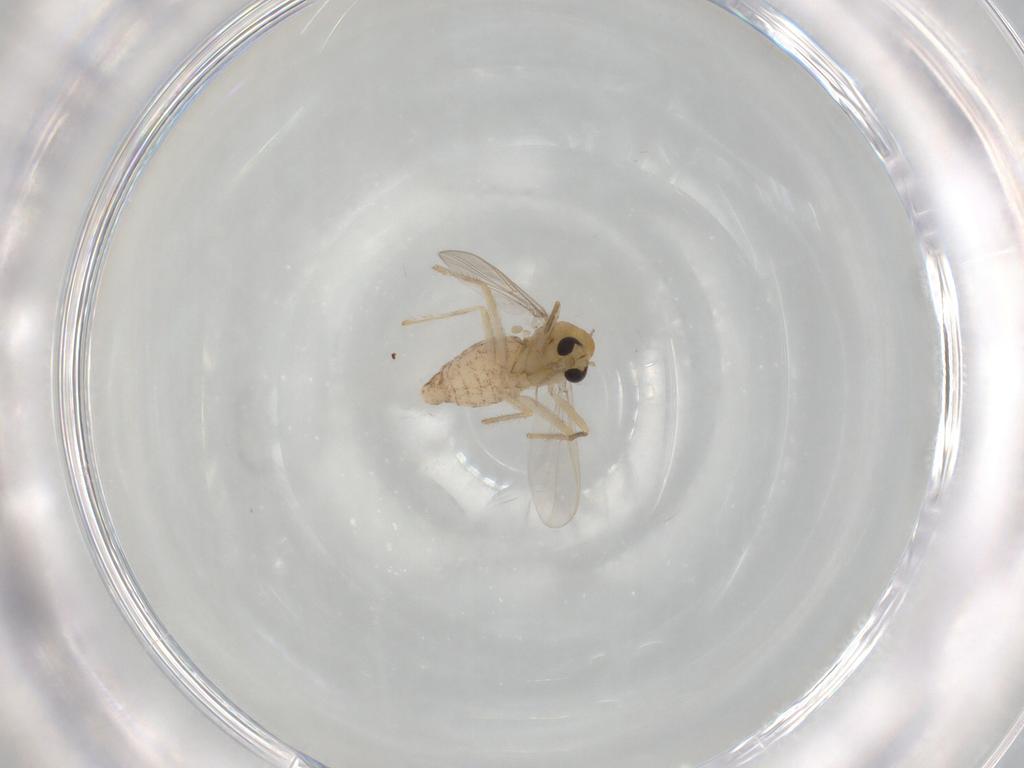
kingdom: Animalia
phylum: Arthropoda
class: Insecta
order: Diptera
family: Chironomidae
